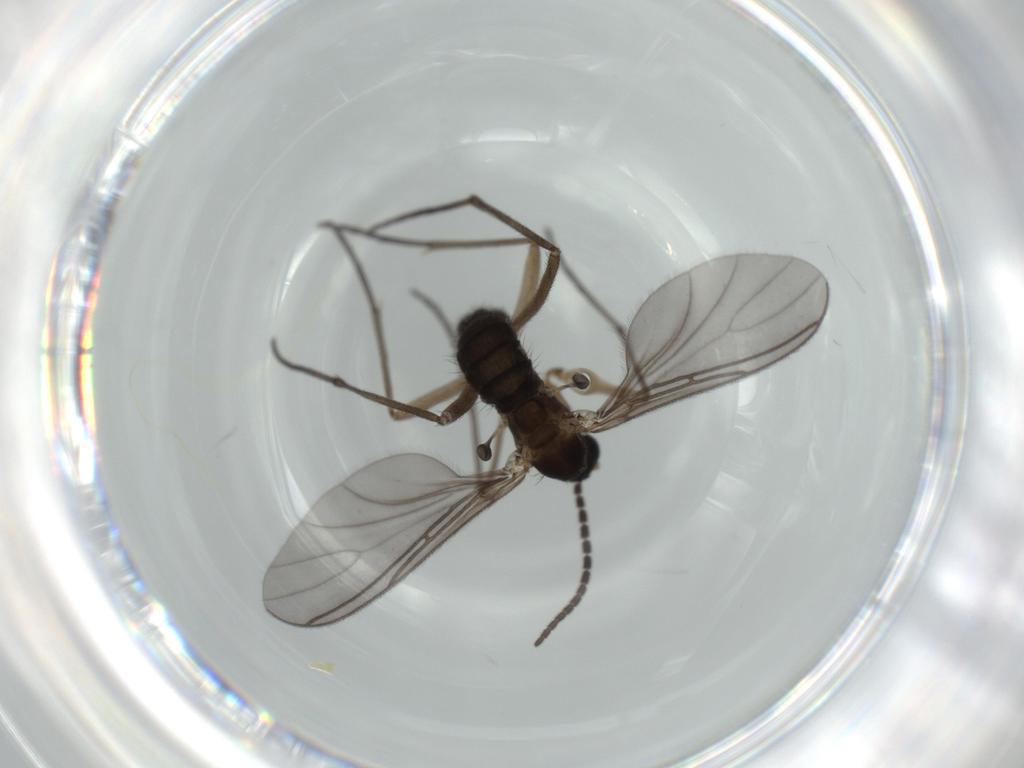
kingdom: Animalia
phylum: Arthropoda
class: Insecta
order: Diptera
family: Sciaridae
